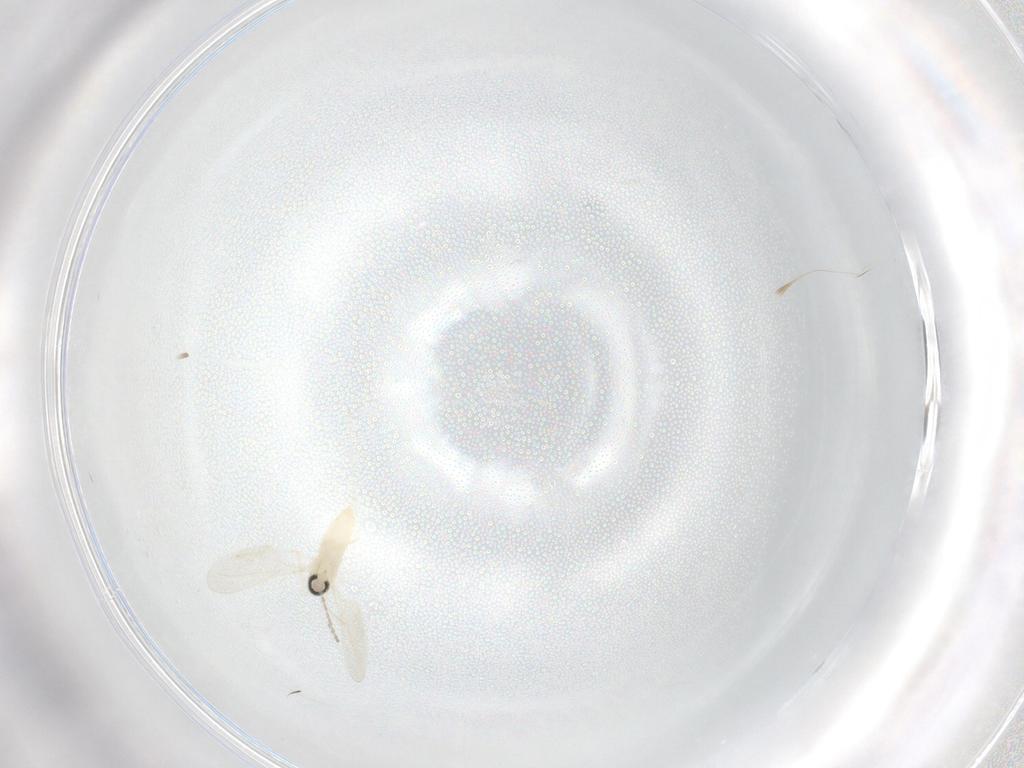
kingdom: Animalia
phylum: Arthropoda
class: Insecta
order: Diptera
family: Cecidomyiidae
